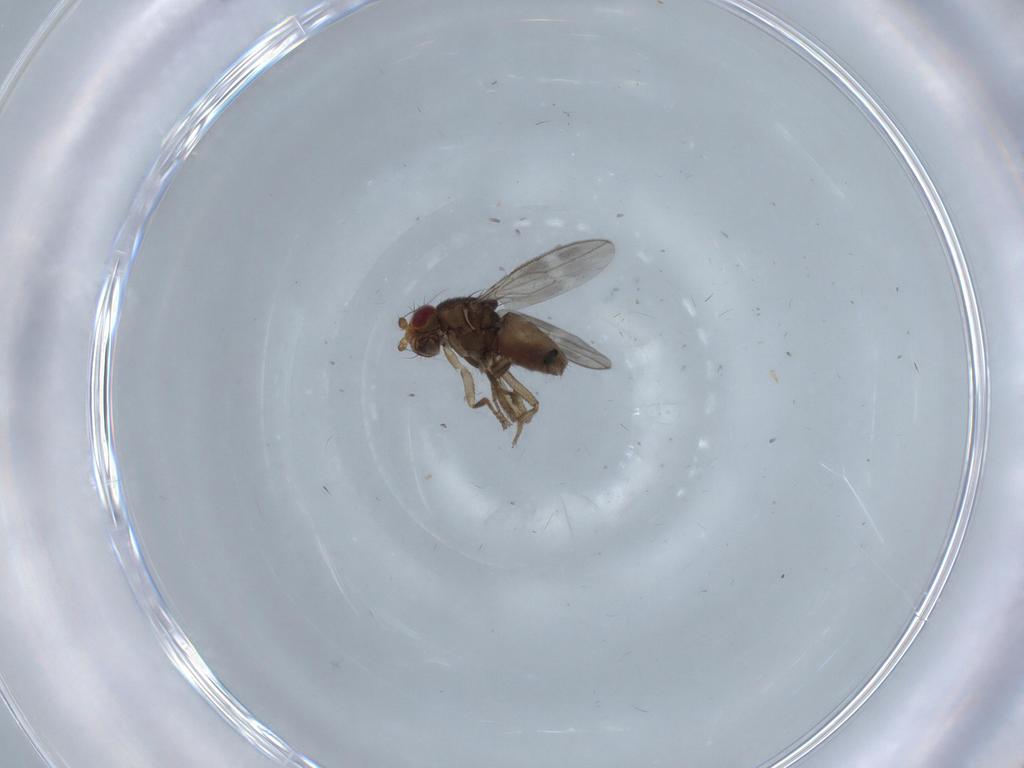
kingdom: Animalia
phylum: Arthropoda
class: Insecta
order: Diptera
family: Sphaeroceridae
